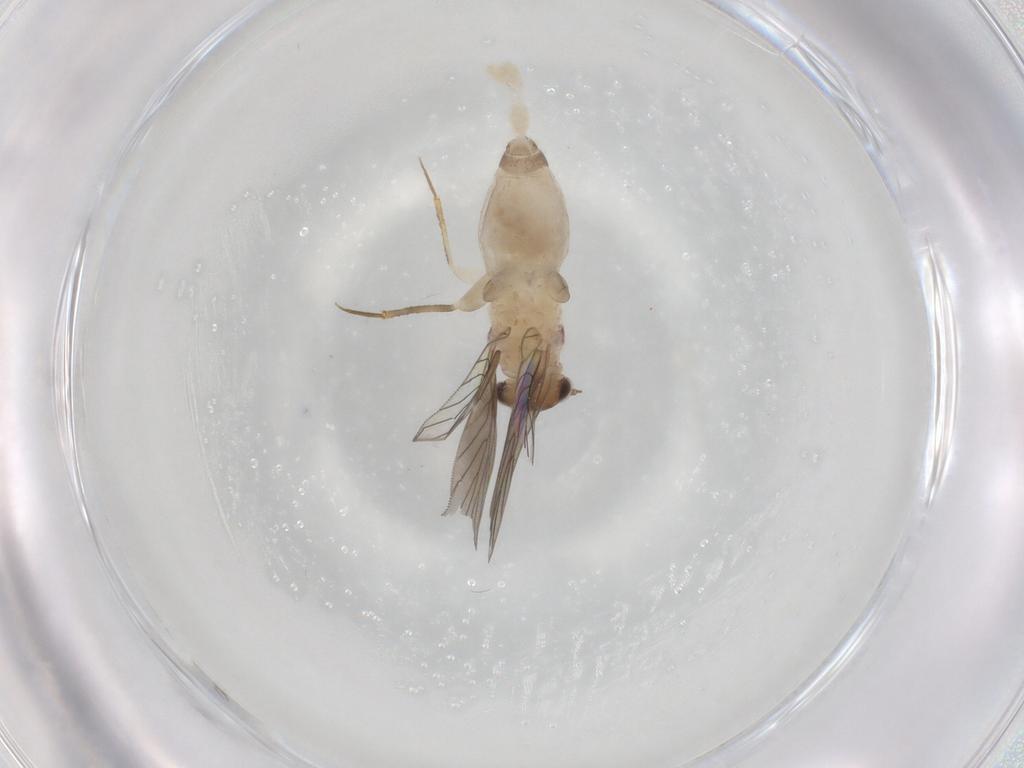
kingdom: Animalia
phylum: Arthropoda
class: Insecta
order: Psocodea
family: Lepidopsocidae
